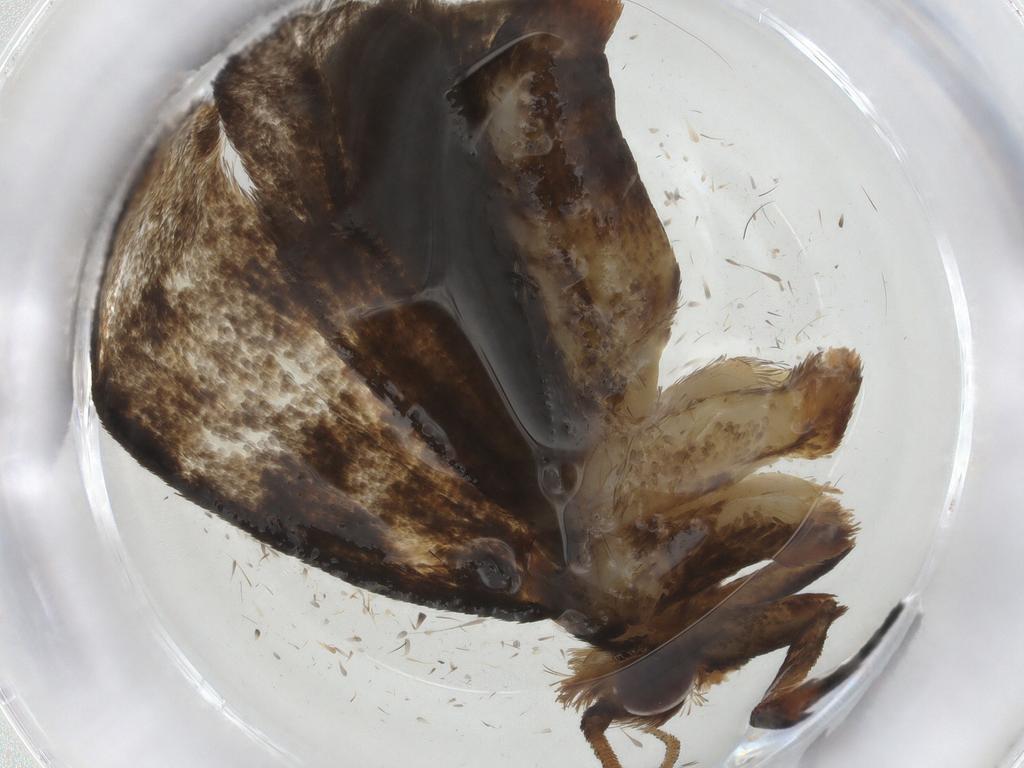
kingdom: Animalia
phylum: Arthropoda
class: Insecta
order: Lepidoptera
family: Tineidae
